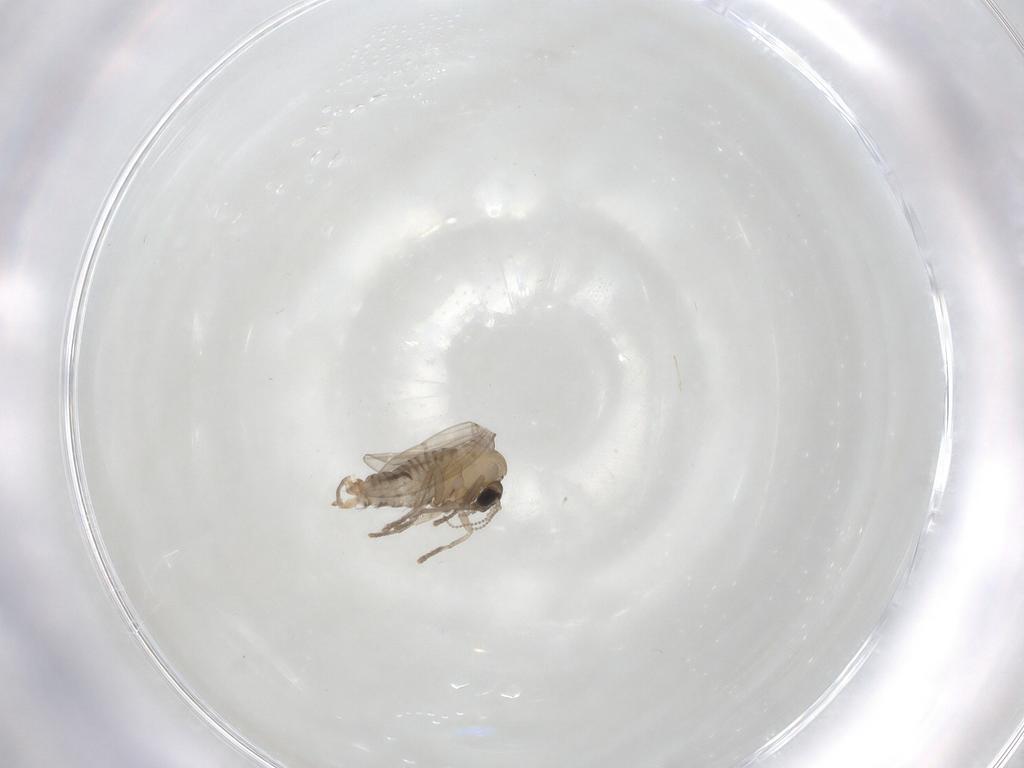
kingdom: Animalia
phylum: Arthropoda
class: Insecta
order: Diptera
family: Psychodidae
